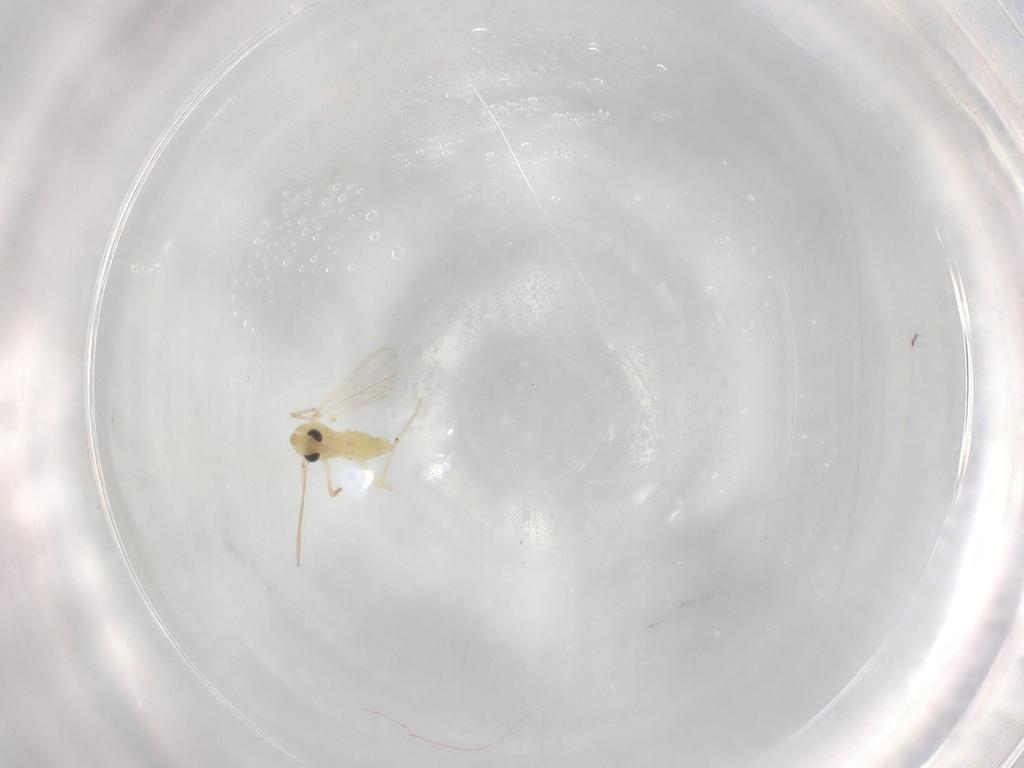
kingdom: Animalia
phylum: Arthropoda
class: Insecta
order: Diptera
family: Chironomidae
